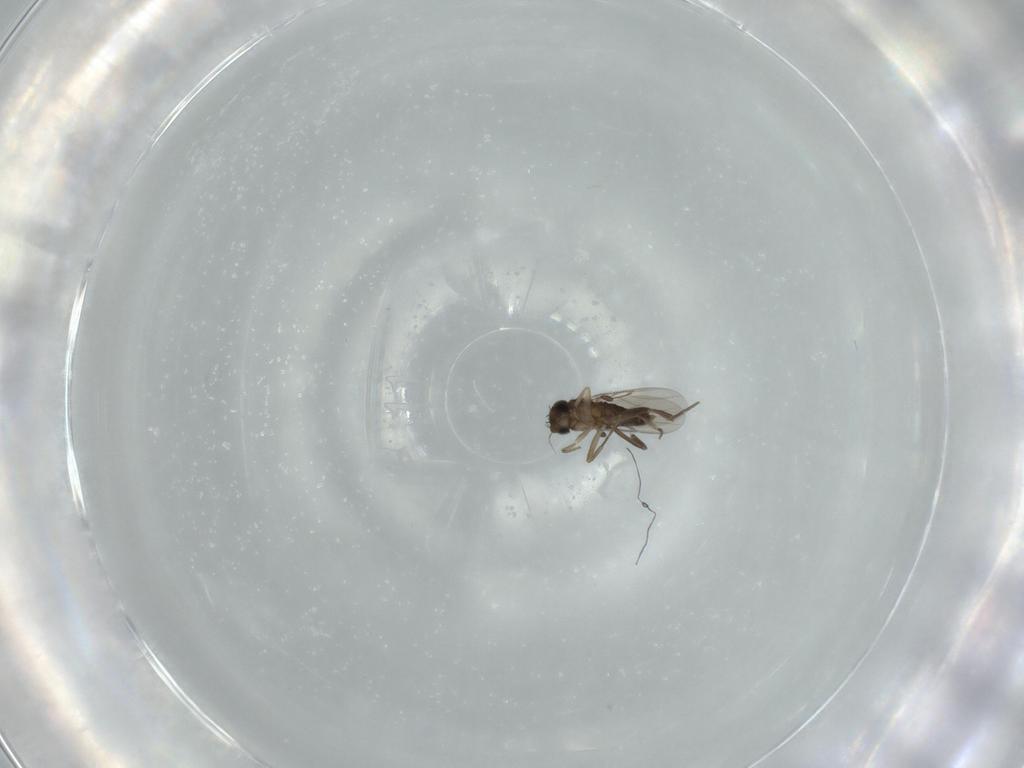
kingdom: Animalia
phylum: Arthropoda
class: Insecta
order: Diptera
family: Phoridae
